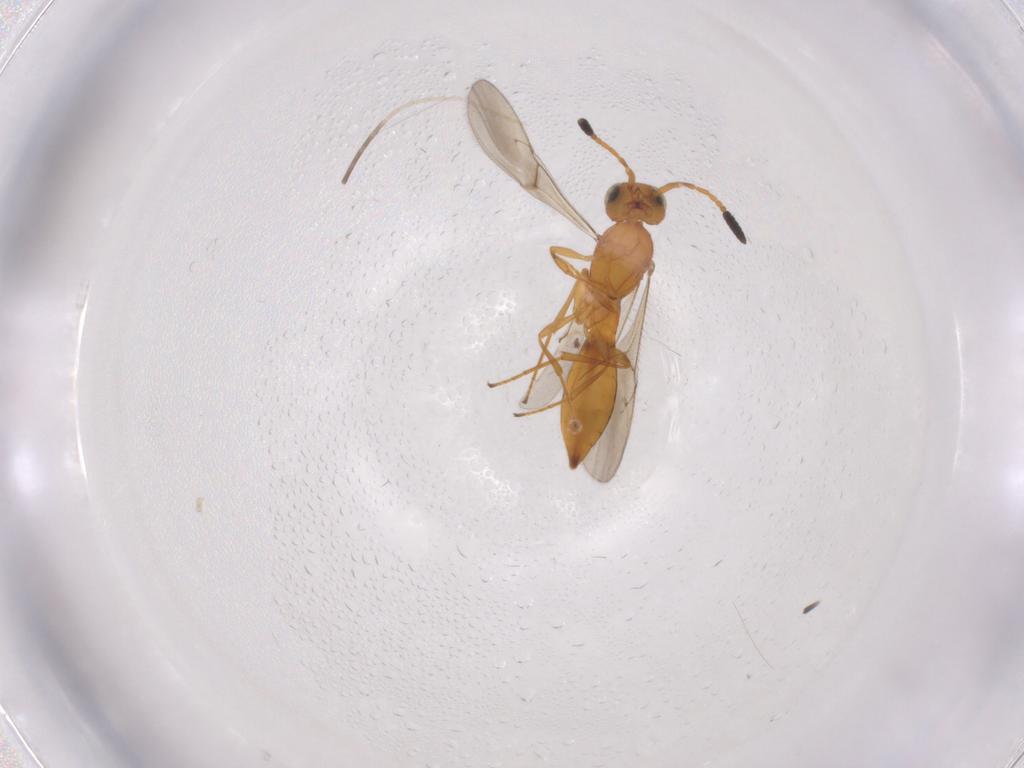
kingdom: Animalia
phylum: Arthropoda
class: Insecta
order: Hymenoptera
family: Scelionidae
